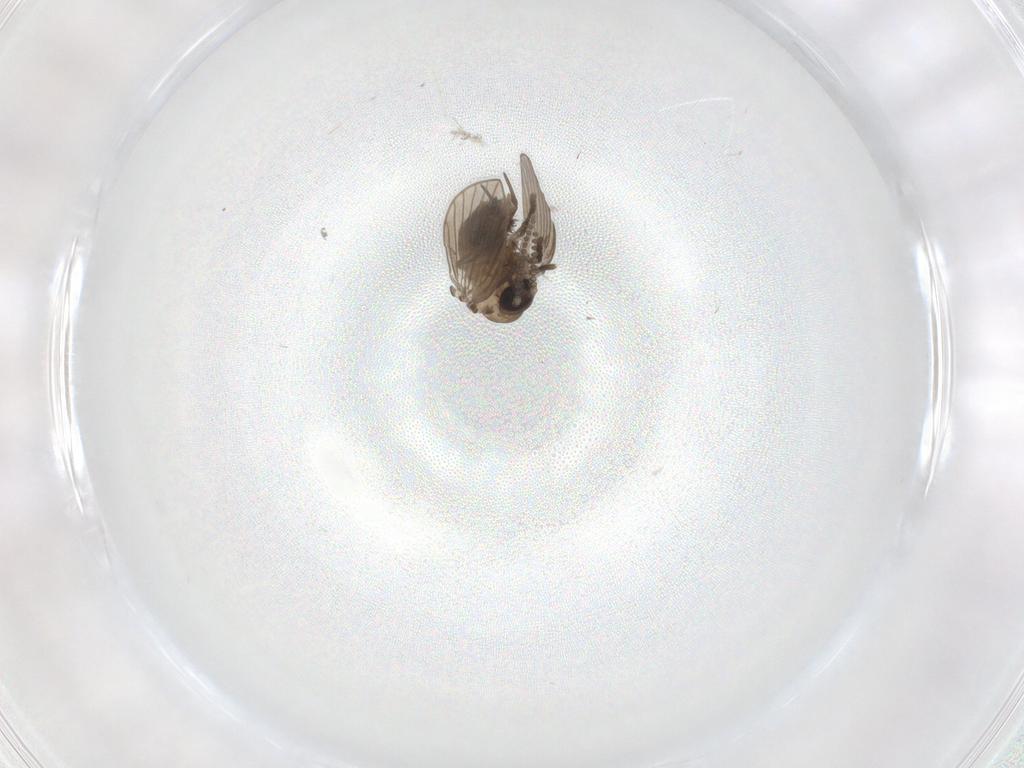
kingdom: Animalia
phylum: Arthropoda
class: Insecta
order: Diptera
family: Psychodidae
